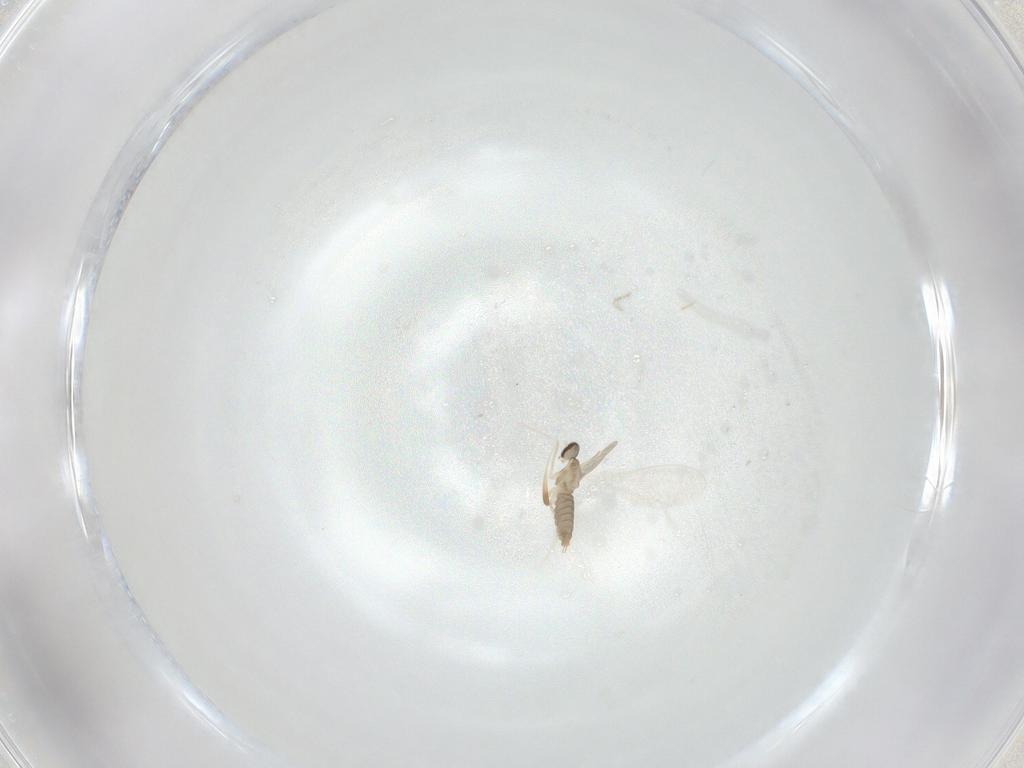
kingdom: Animalia
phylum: Arthropoda
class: Insecta
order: Diptera
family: Cecidomyiidae
